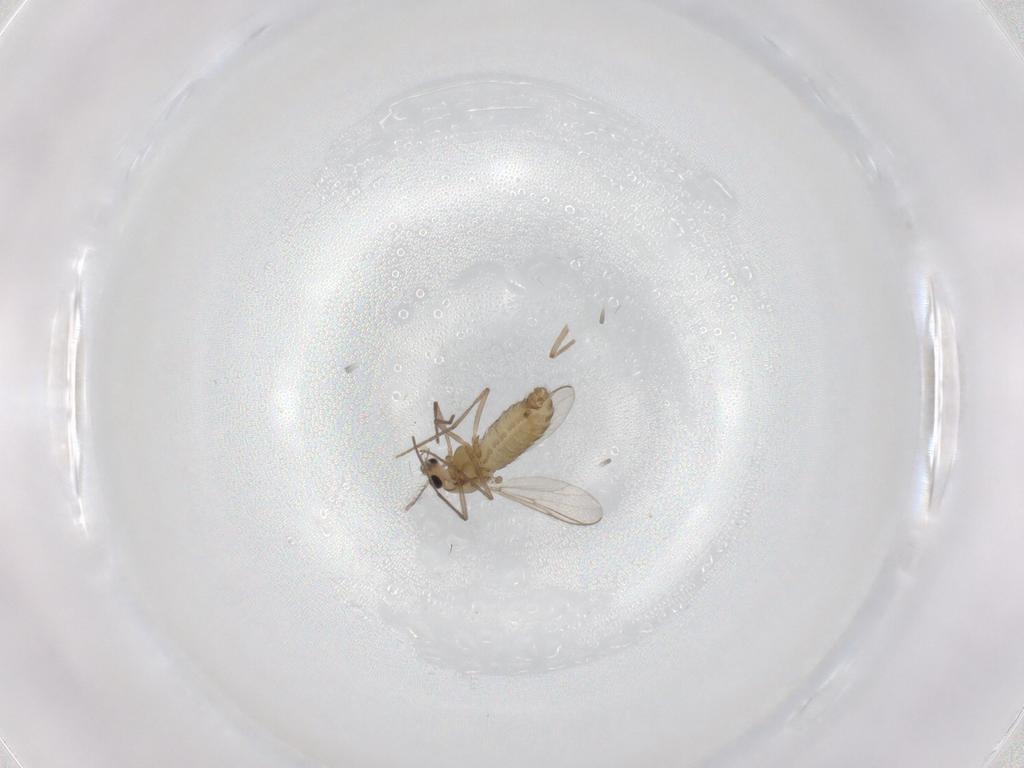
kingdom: Animalia
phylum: Arthropoda
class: Insecta
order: Diptera
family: Chironomidae
